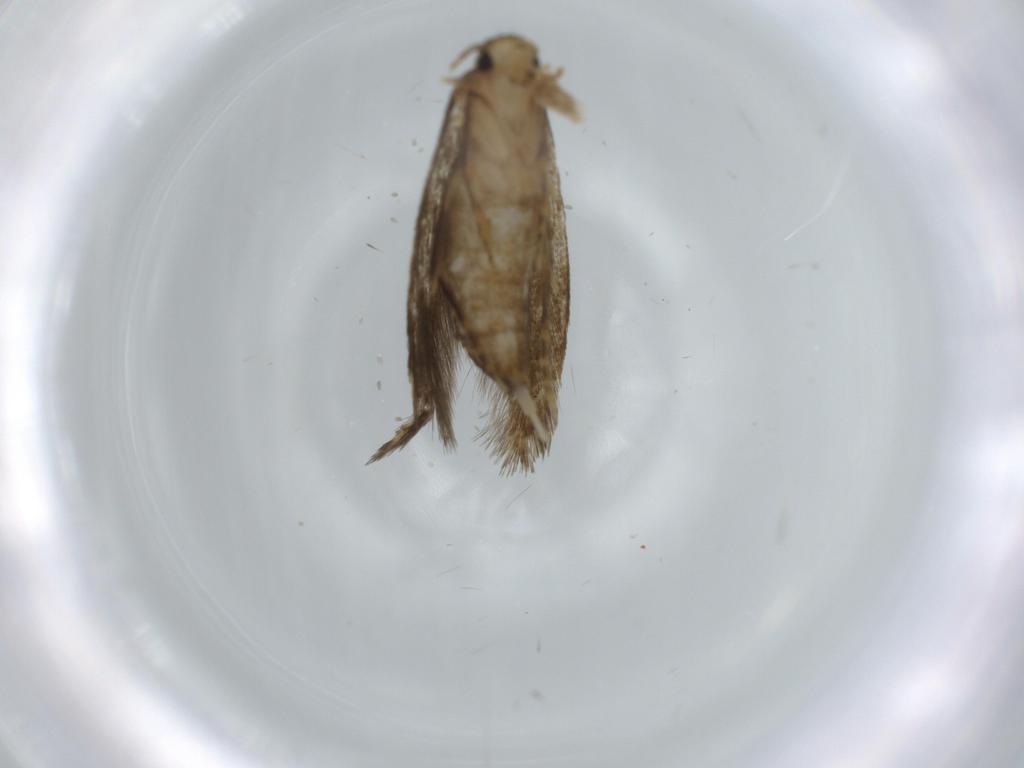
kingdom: Animalia
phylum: Arthropoda
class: Insecta
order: Lepidoptera
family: Tineidae
